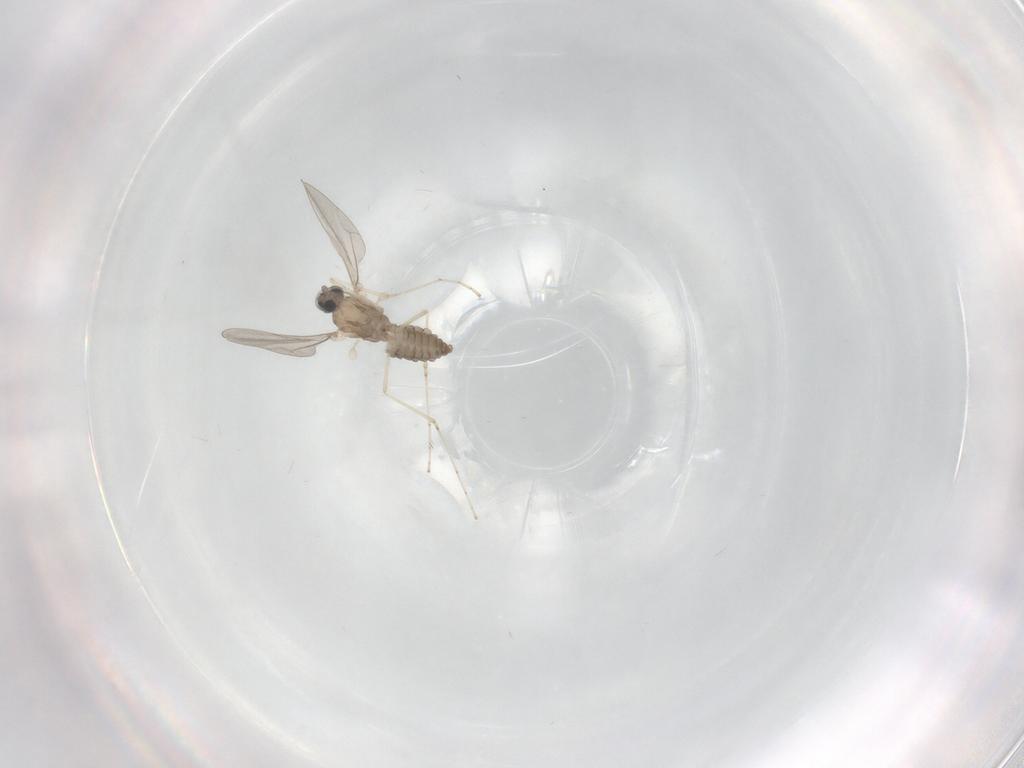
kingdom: Animalia
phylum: Arthropoda
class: Insecta
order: Diptera
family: Cecidomyiidae
